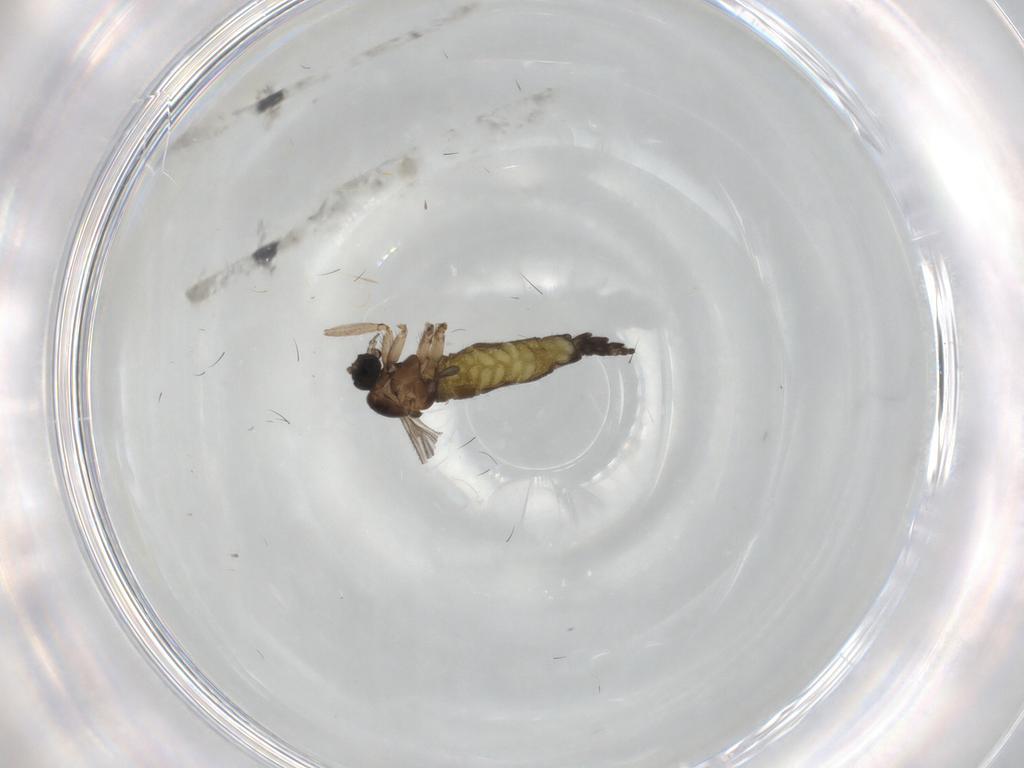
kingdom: Animalia
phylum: Arthropoda
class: Insecta
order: Diptera
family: Sciaridae
